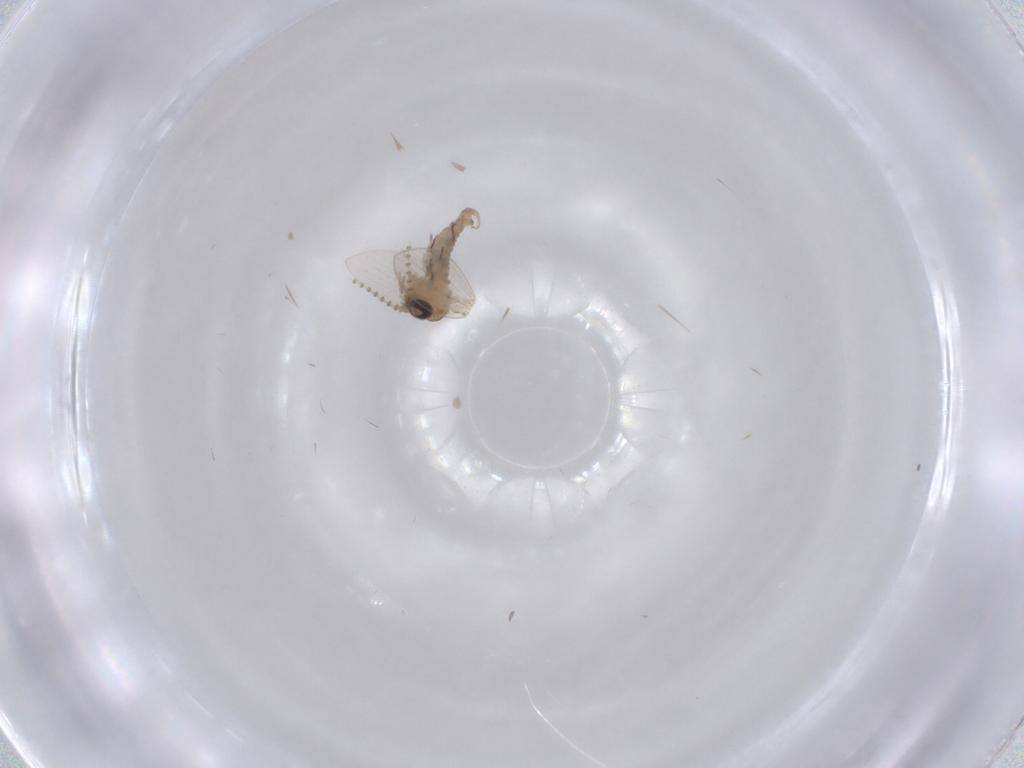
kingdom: Animalia
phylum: Arthropoda
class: Insecta
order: Diptera
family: Psychodidae
